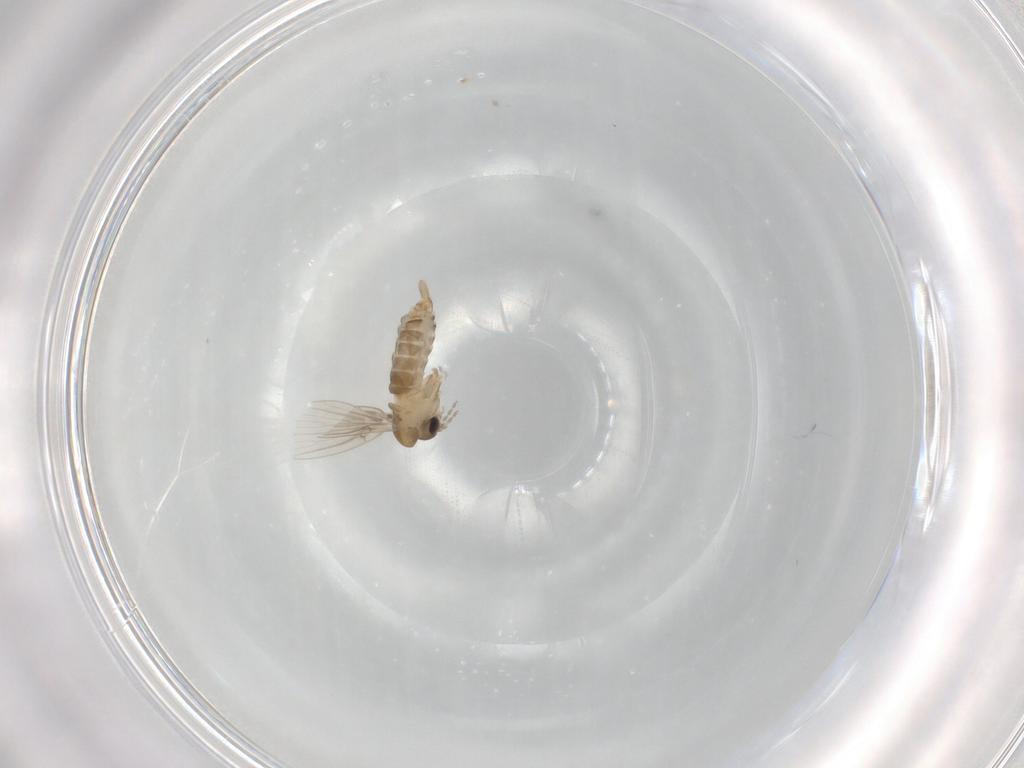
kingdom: Animalia
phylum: Arthropoda
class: Insecta
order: Diptera
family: Psychodidae
